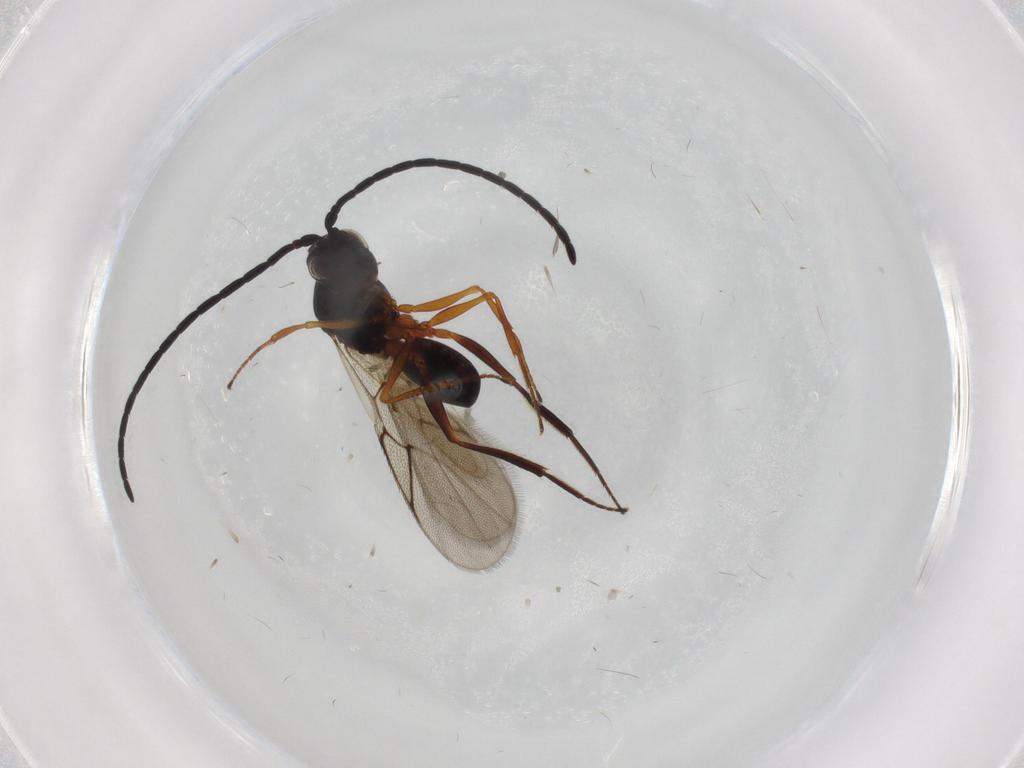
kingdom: Animalia
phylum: Arthropoda
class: Insecta
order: Hymenoptera
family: Figitidae
